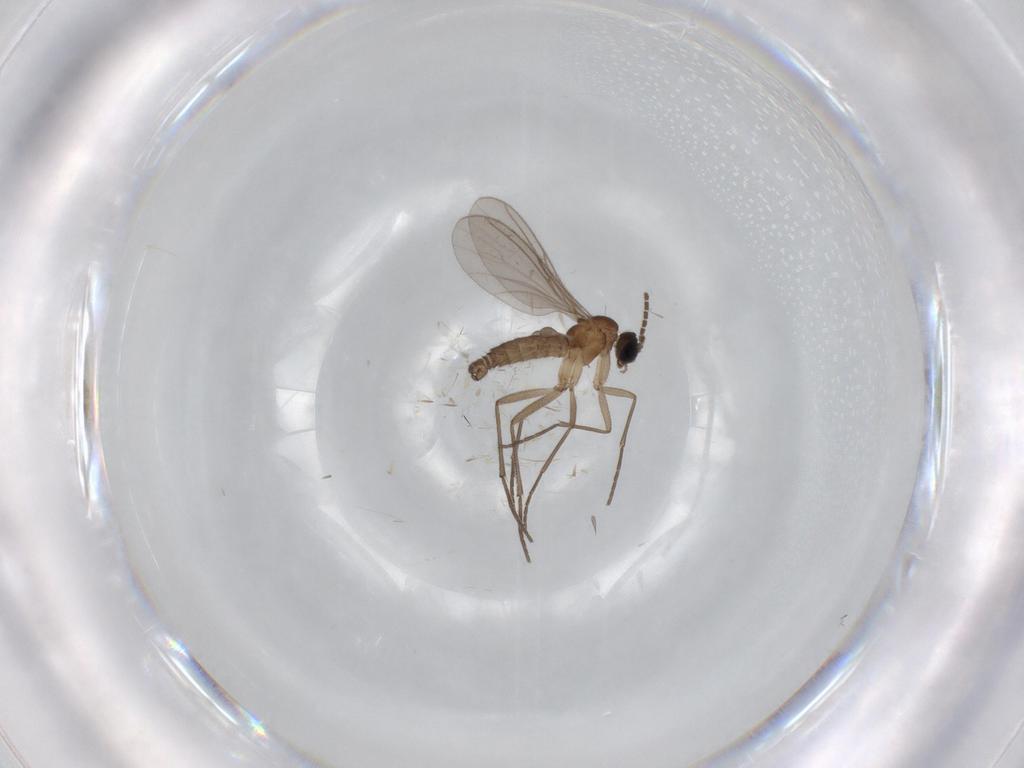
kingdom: Animalia
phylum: Arthropoda
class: Insecta
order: Diptera
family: Sciaridae
